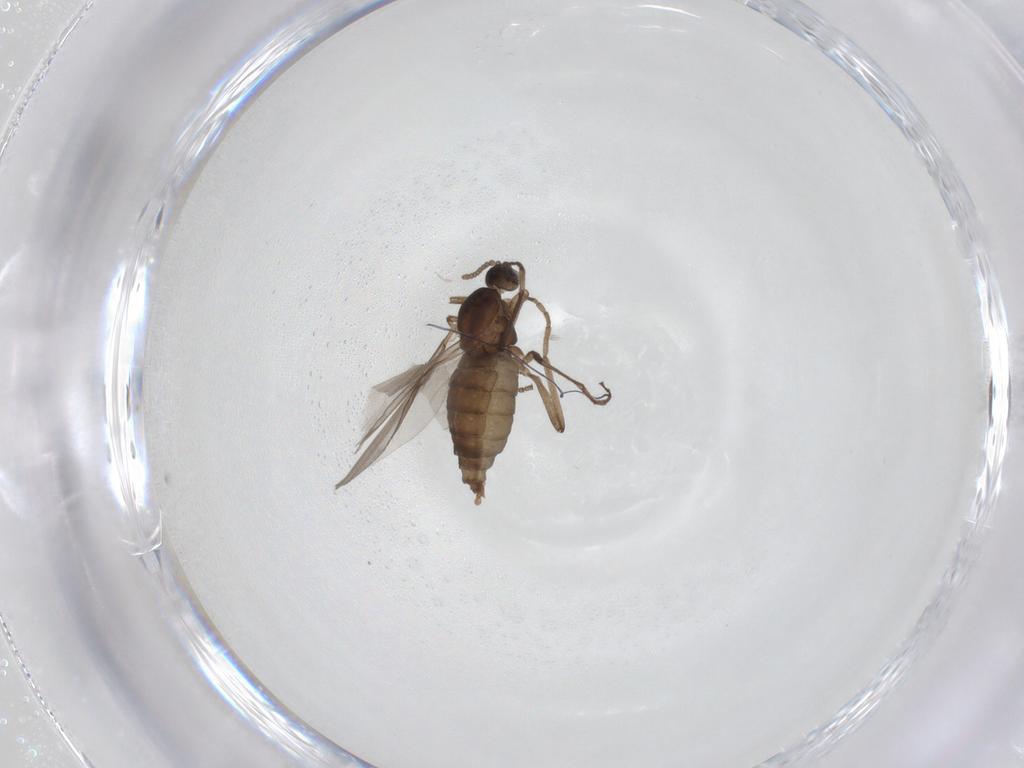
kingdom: Animalia
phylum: Arthropoda
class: Insecta
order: Diptera
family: Cecidomyiidae
